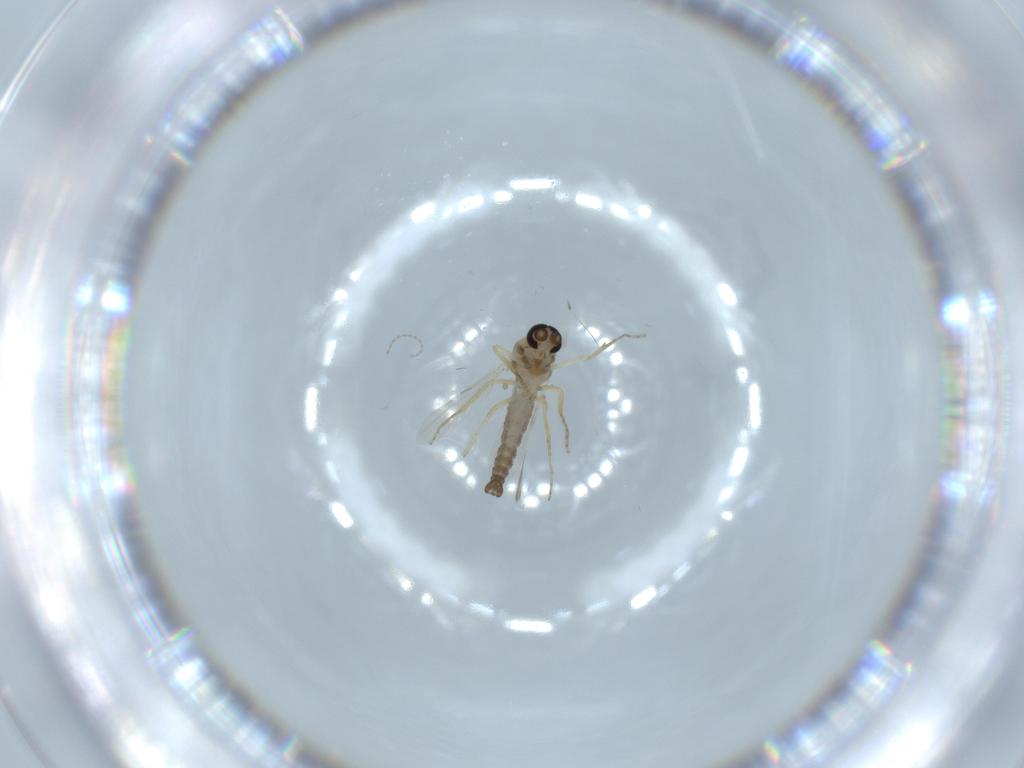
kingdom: Animalia
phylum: Arthropoda
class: Insecta
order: Diptera
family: Ceratopogonidae
